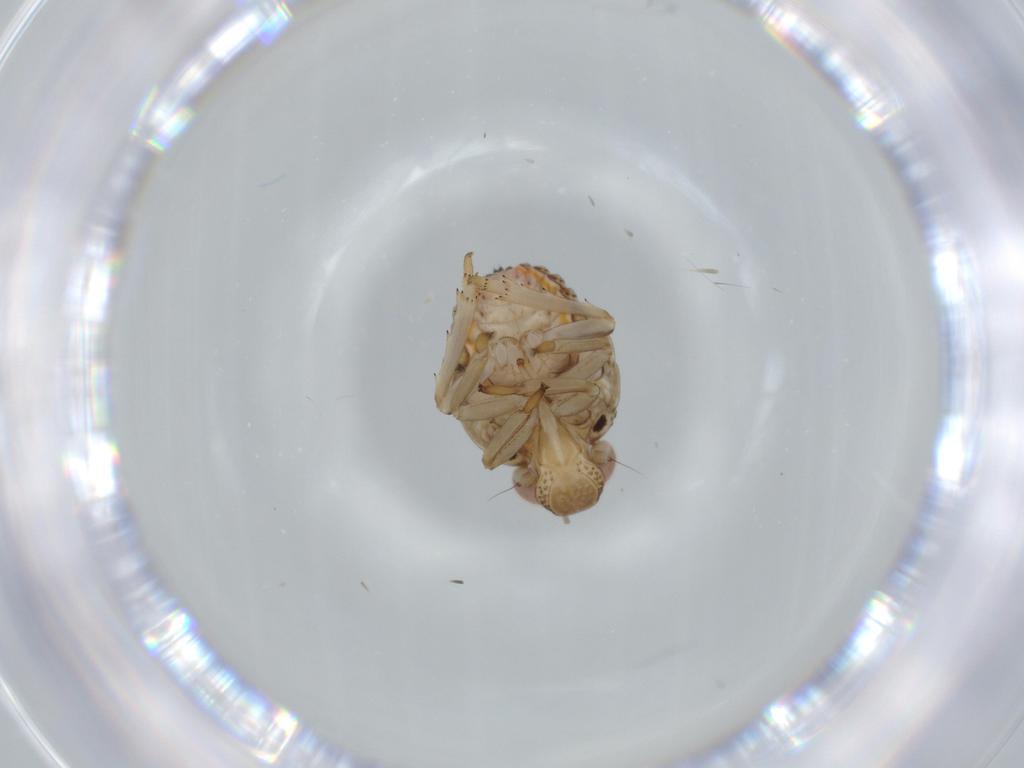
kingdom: Animalia
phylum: Arthropoda
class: Insecta
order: Hemiptera
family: Issidae
